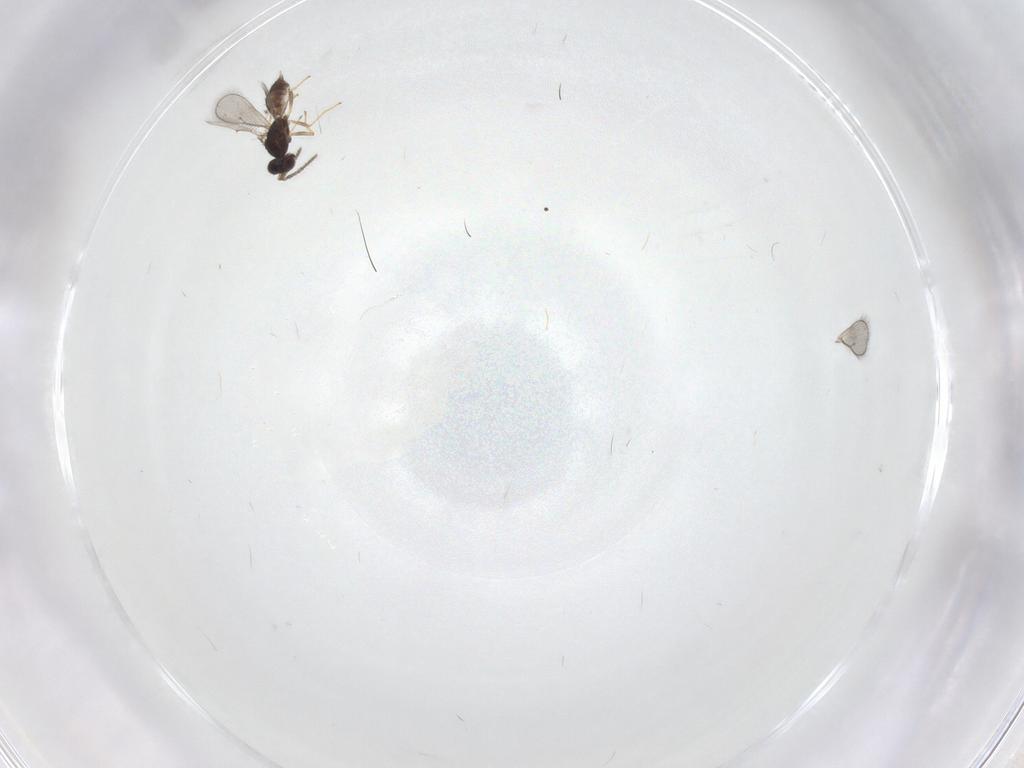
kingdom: Animalia
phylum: Arthropoda
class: Insecta
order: Hymenoptera
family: Eulophidae
